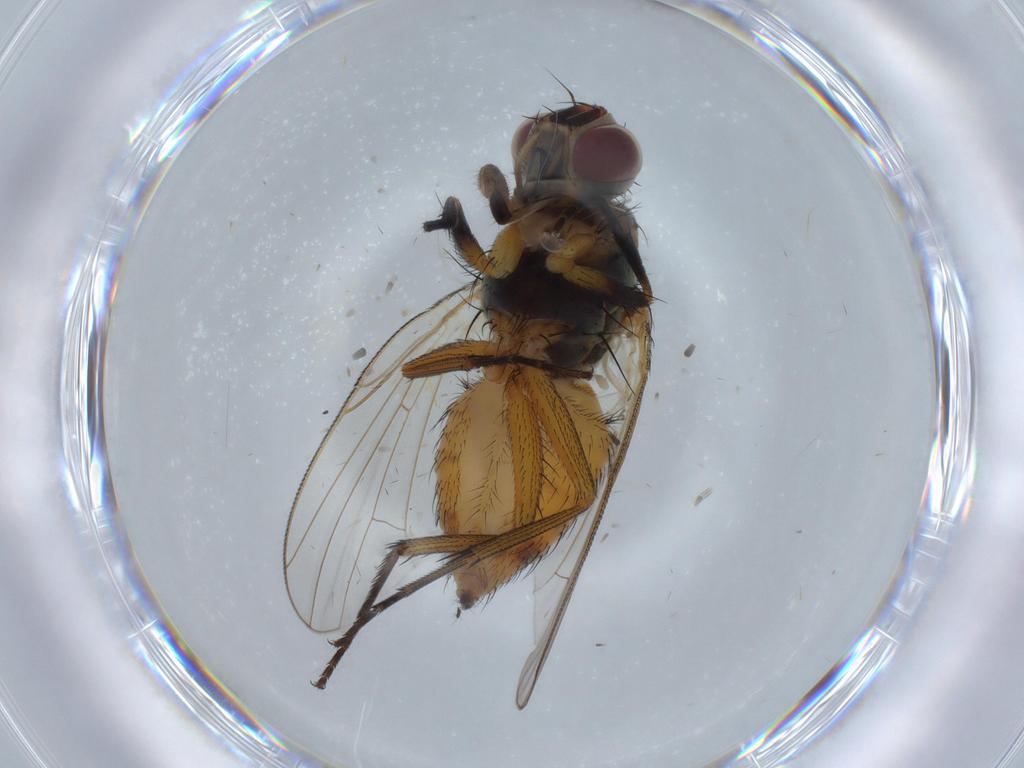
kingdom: Animalia
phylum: Arthropoda
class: Insecta
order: Diptera
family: Muscidae
